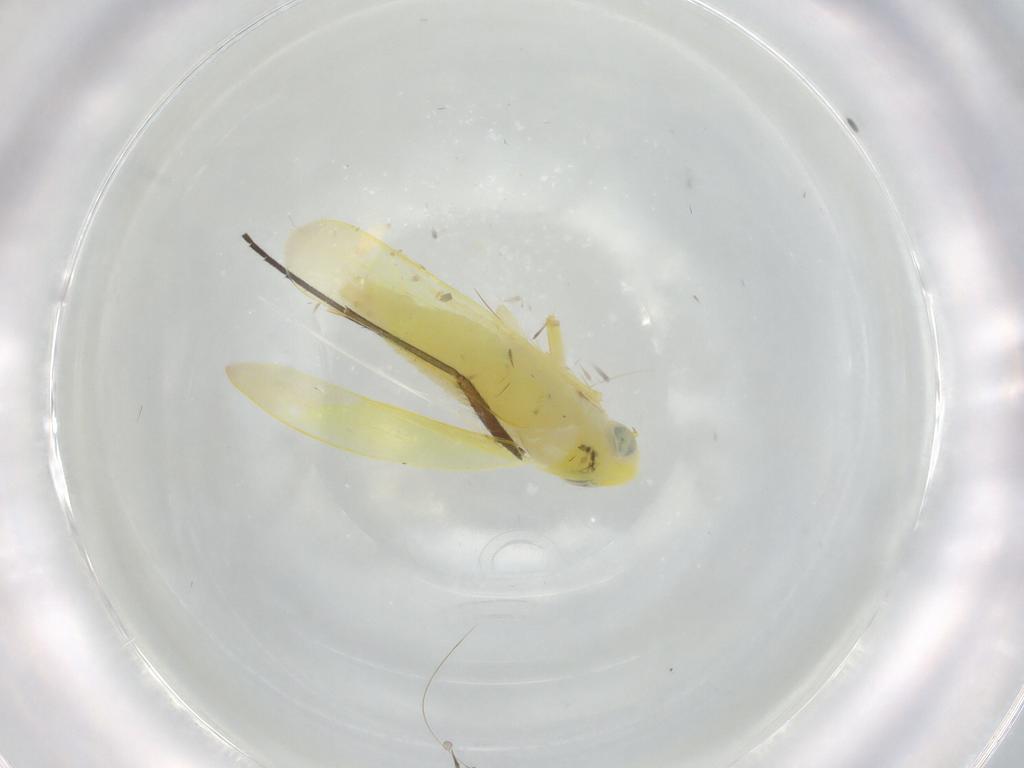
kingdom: Animalia
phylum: Arthropoda
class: Insecta
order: Hemiptera
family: Cicadellidae
